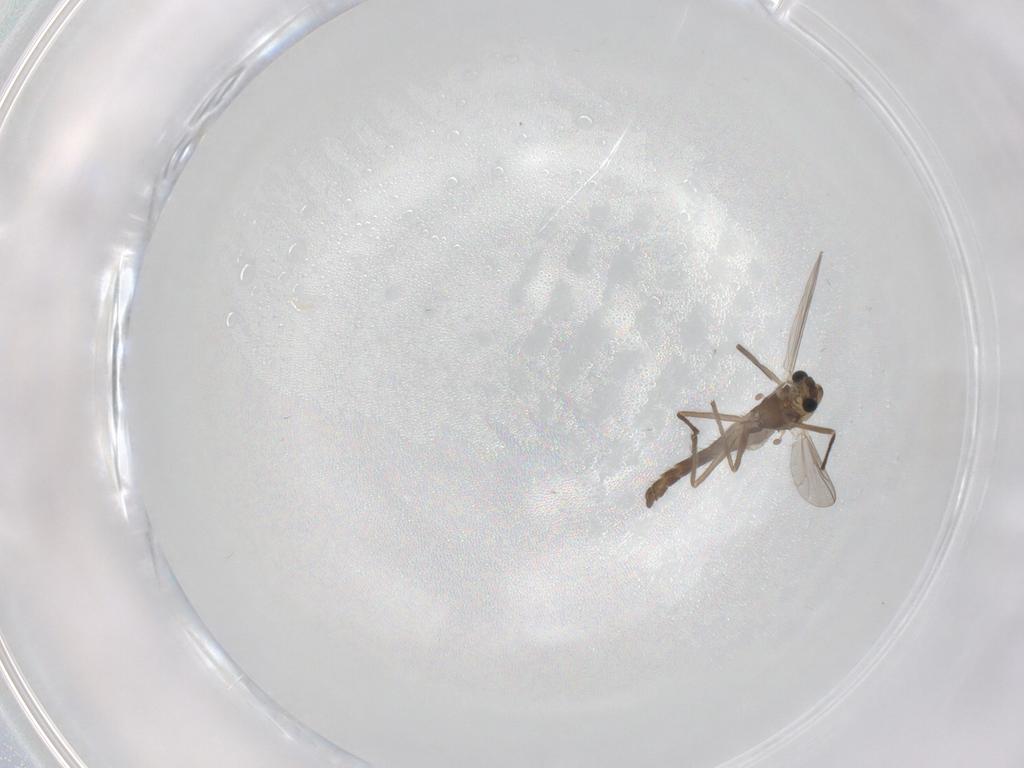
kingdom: Animalia
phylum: Arthropoda
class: Insecta
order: Diptera
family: Chironomidae
